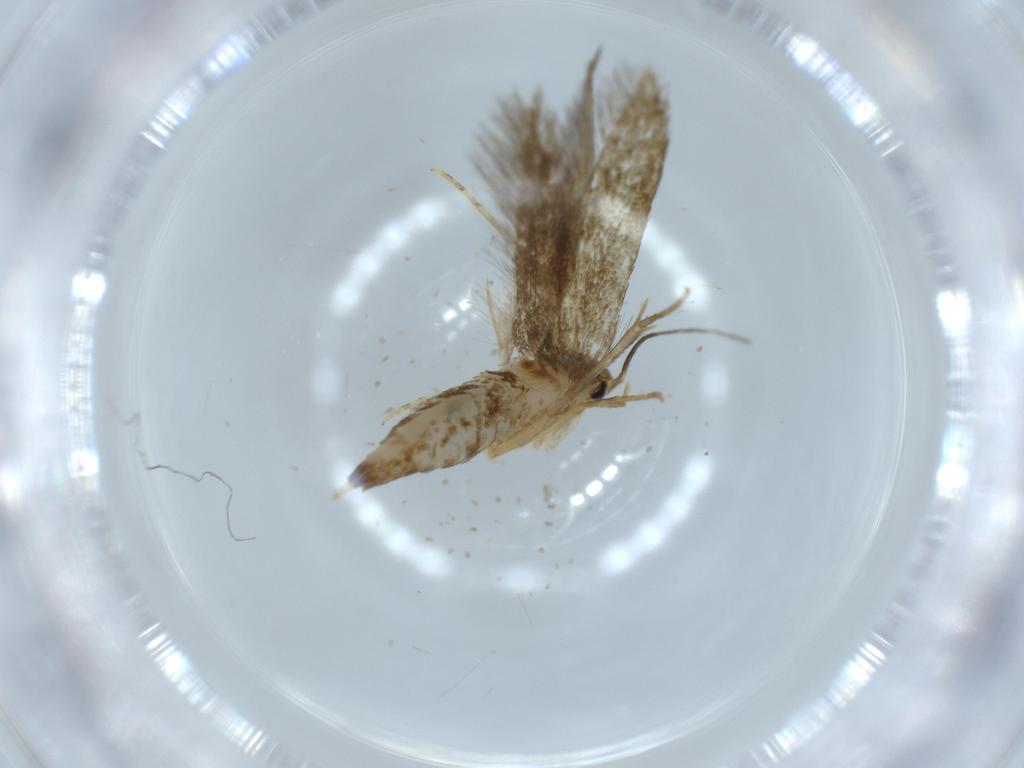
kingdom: Animalia
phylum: Arthropoda
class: Insecta
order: Lepidoptera
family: Tineidae
